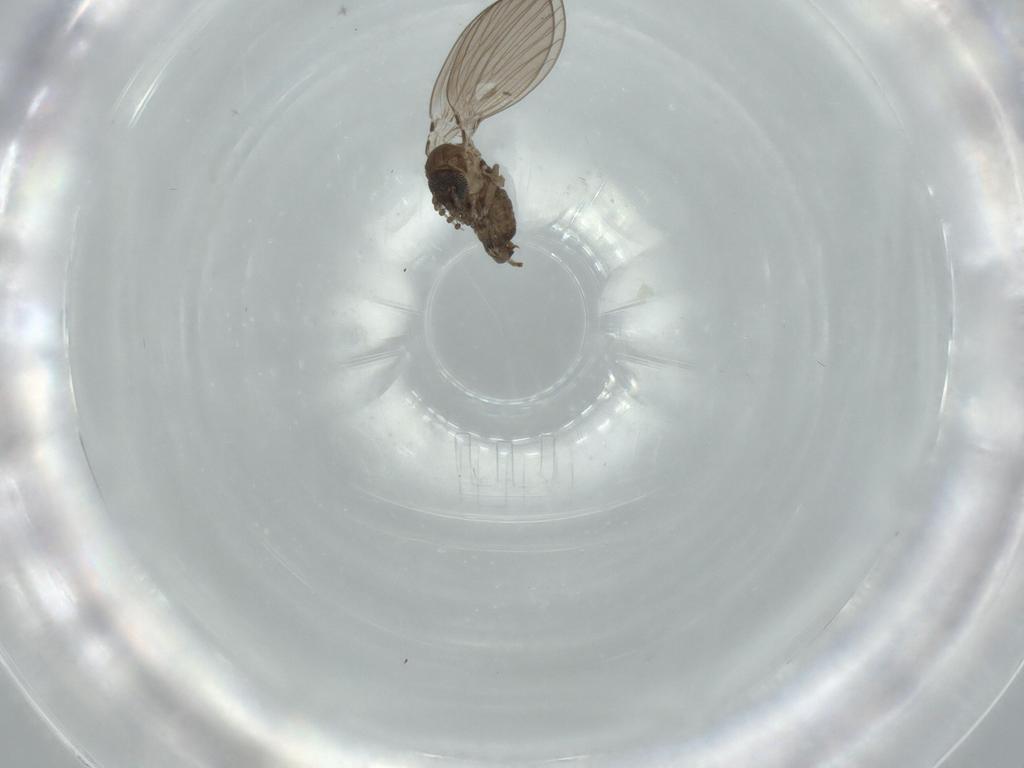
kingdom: Animalia
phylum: Arthropoda
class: Insecta
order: Diptera
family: Psychodidae
